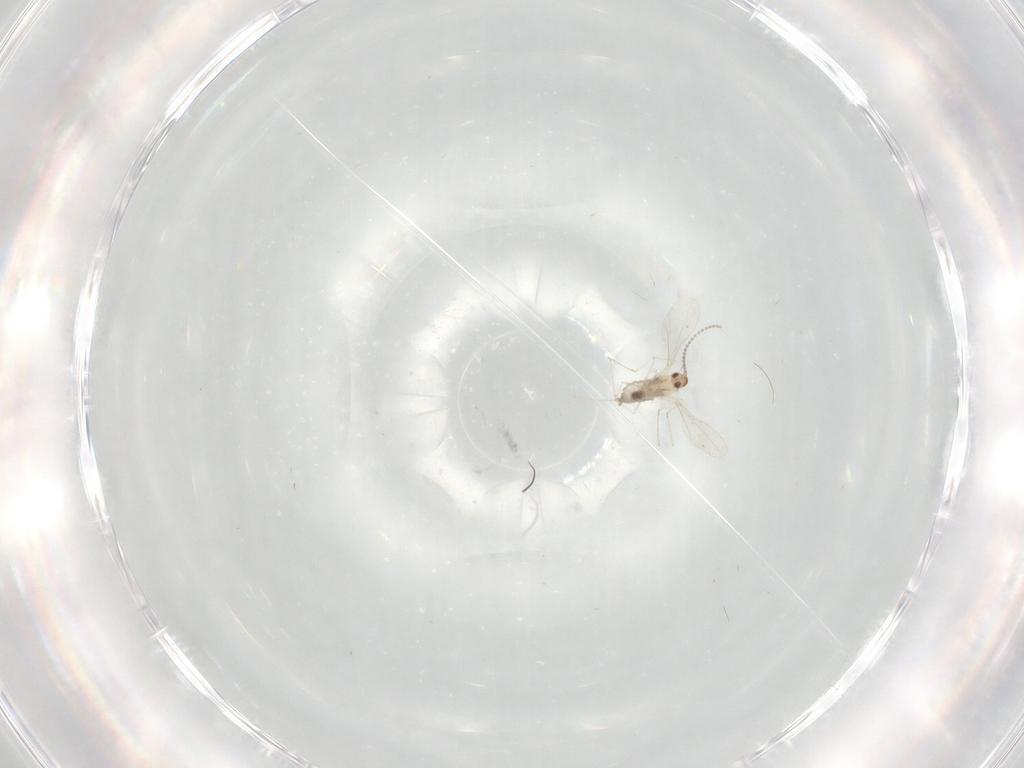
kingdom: Animalia
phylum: Arthropoda
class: Insecta
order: Diptera
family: Cecidomyiidae
